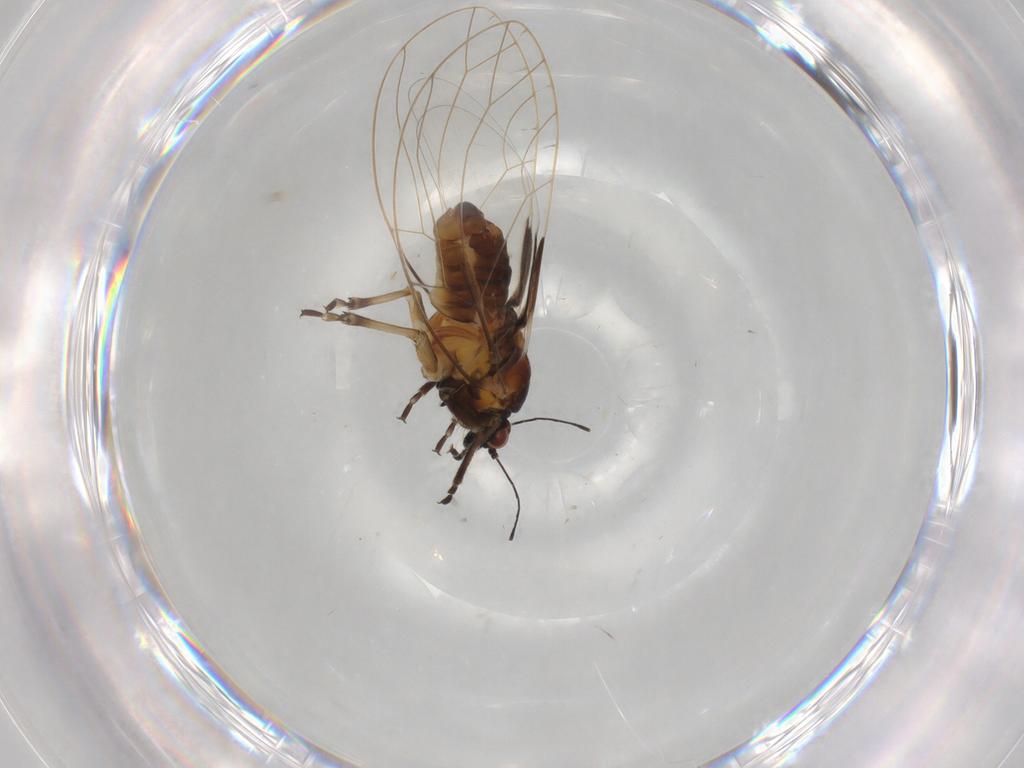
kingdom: Animalia
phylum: Arthropoda
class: Insecta
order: Hemiptera
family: Triozidae
